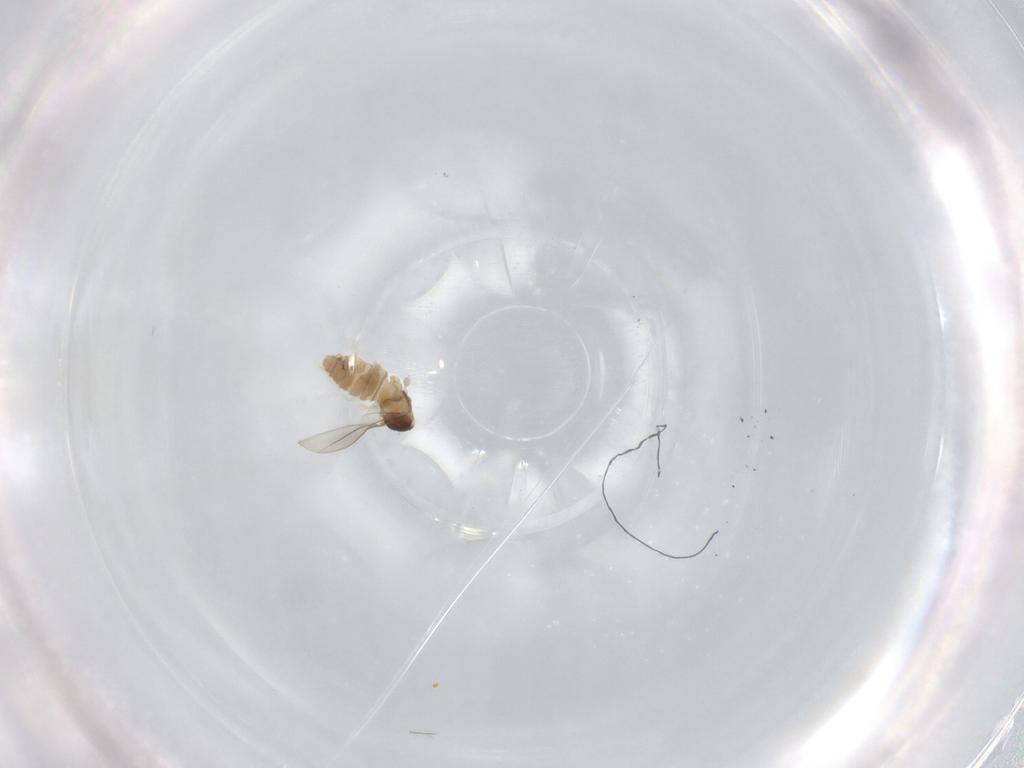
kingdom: Animalia
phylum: Arthropoda
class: Insecta
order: Diptera
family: Cecidomyiidae
